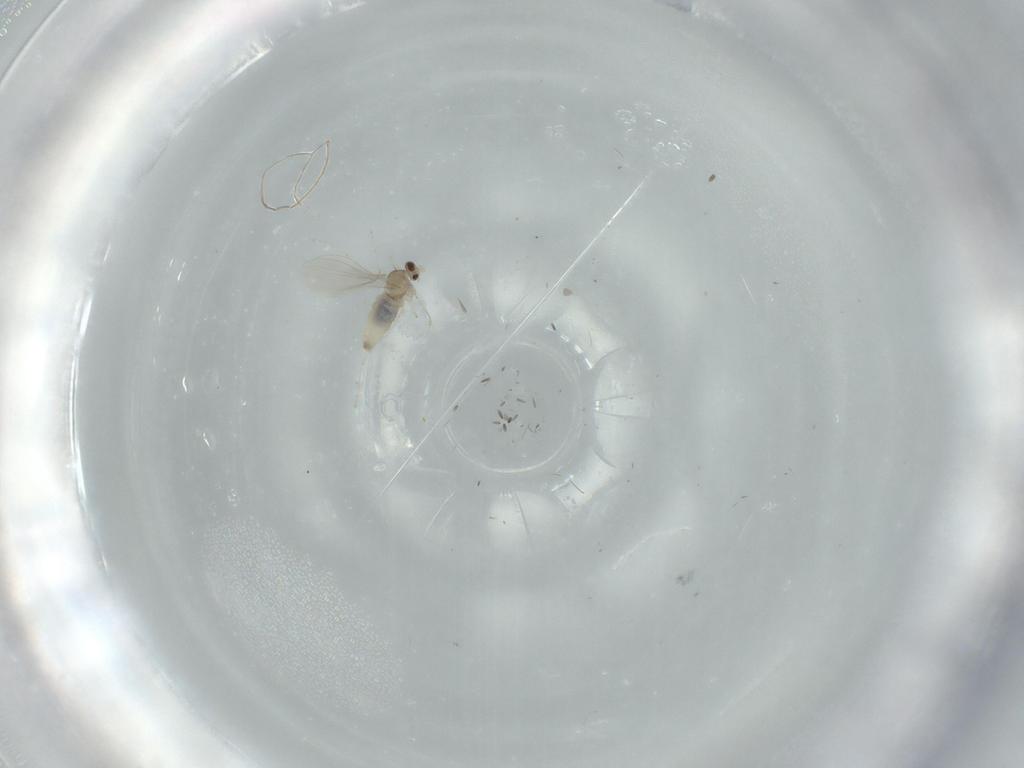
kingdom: Animalia
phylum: Arthropoda
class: Insecta
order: Diptera
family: Cecidomyiidae
